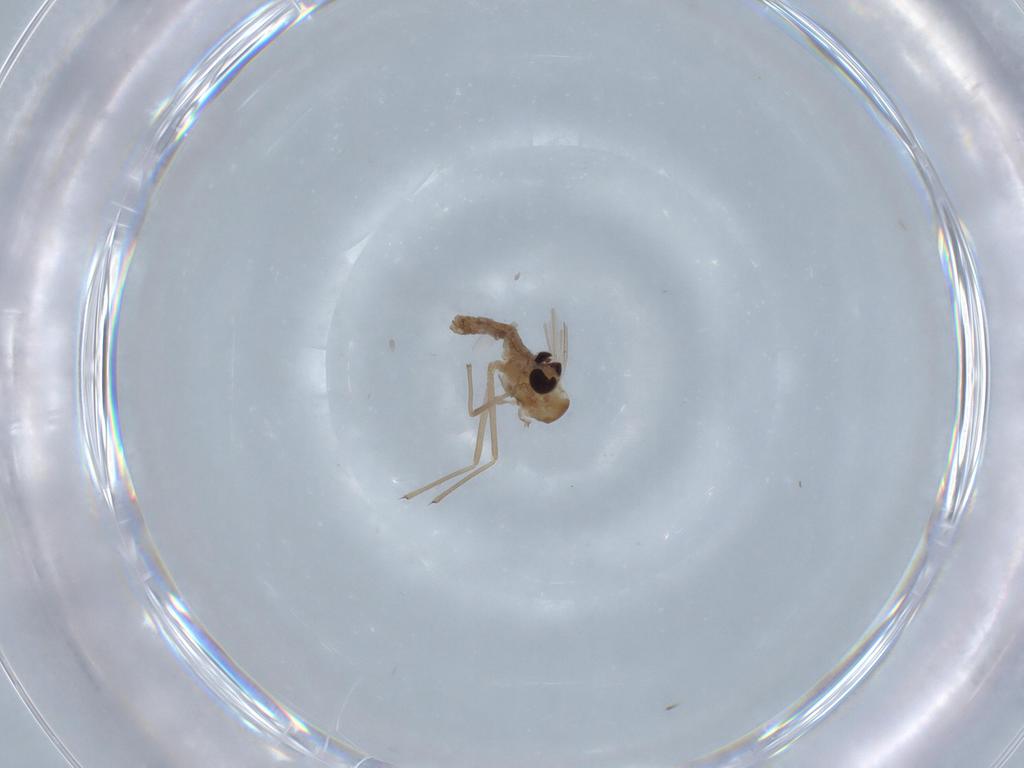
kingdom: Animalia
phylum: Arthropoda
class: Insecta
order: Diptera
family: Chironomidae
